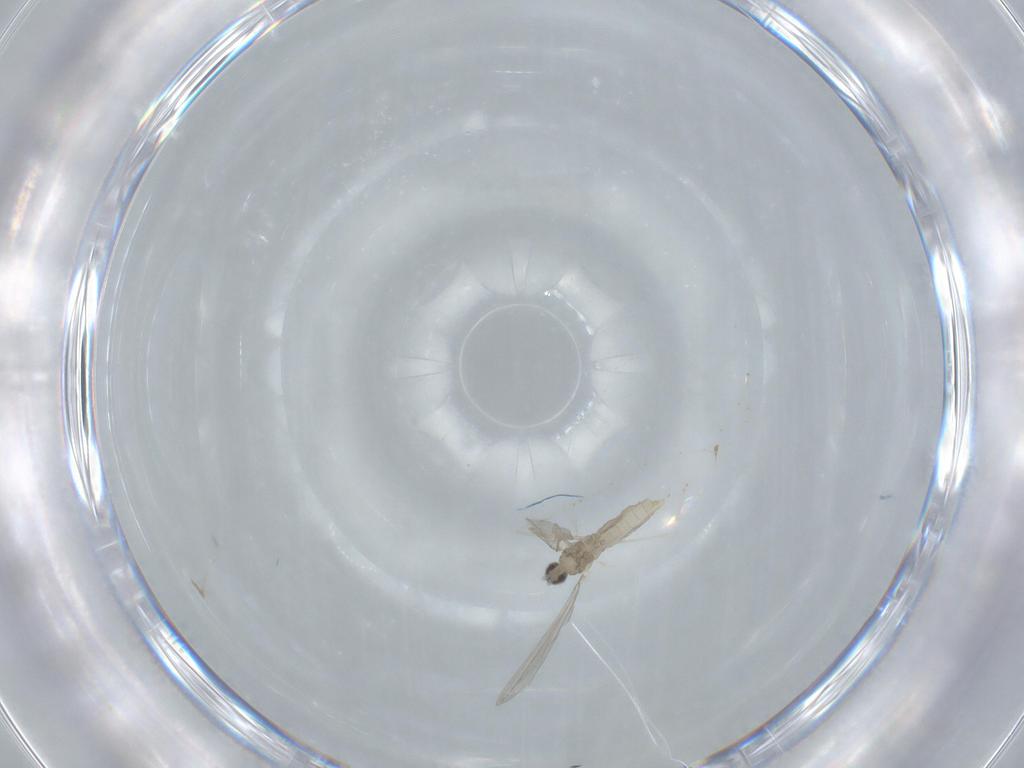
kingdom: Animalia
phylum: Arthropoda
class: Insecta
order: Diptera
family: Cecidomyiidae
